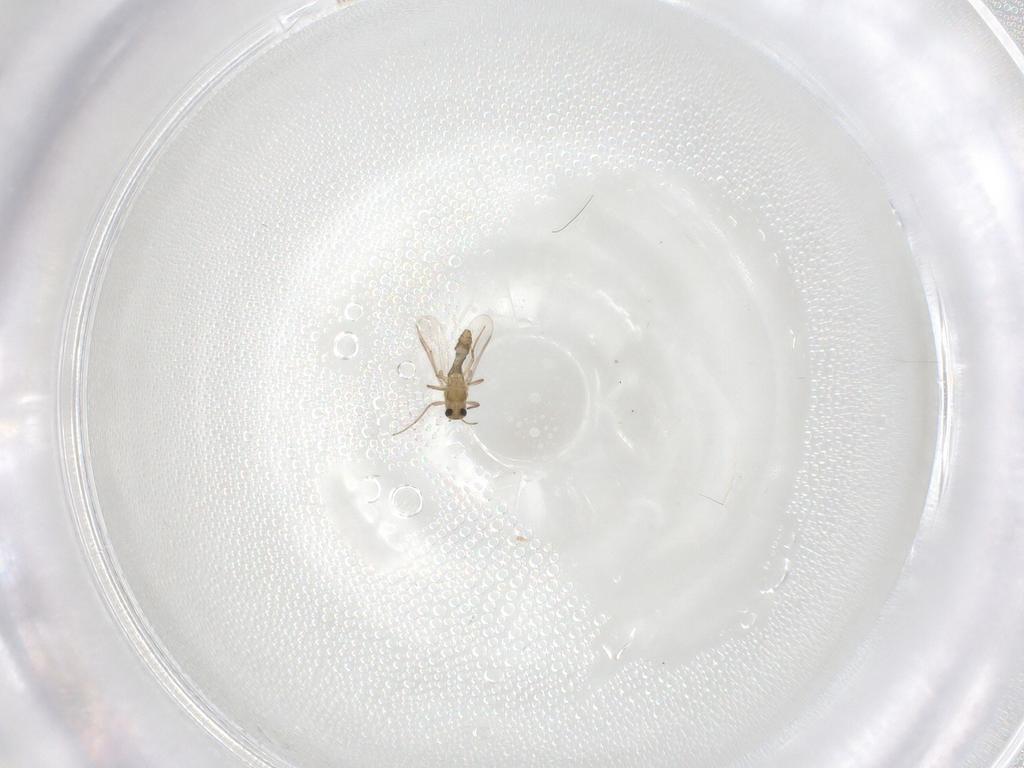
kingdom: Animalia
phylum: Arthropoda
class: Insecta
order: Diptera
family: Chironomidae
